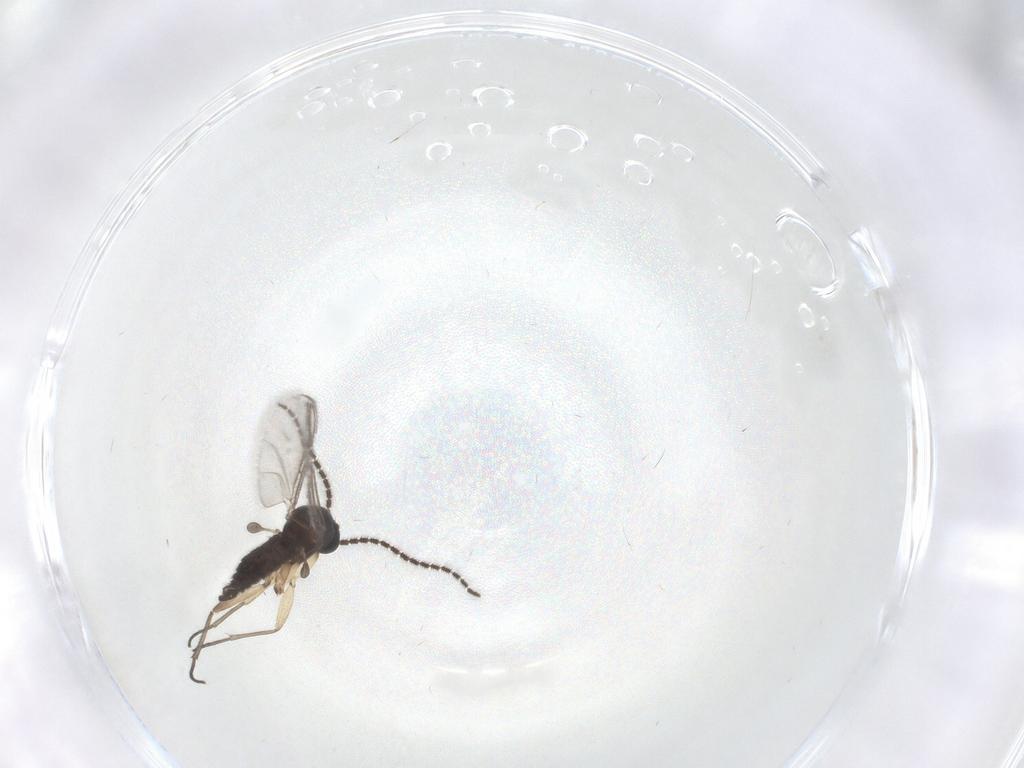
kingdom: Animalia
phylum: Arthropoda
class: Insecta
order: Diptera
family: Sciaridae
